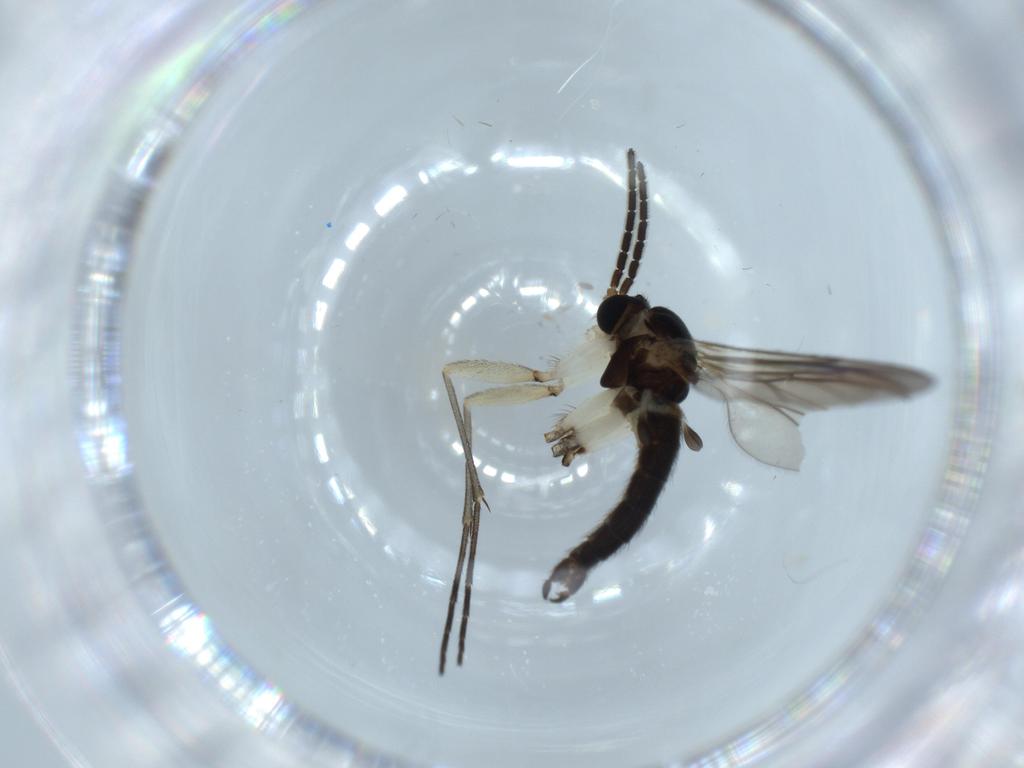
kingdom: Animalia
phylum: Arthropoda
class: Insecta
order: Diptera
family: Sciaridae
